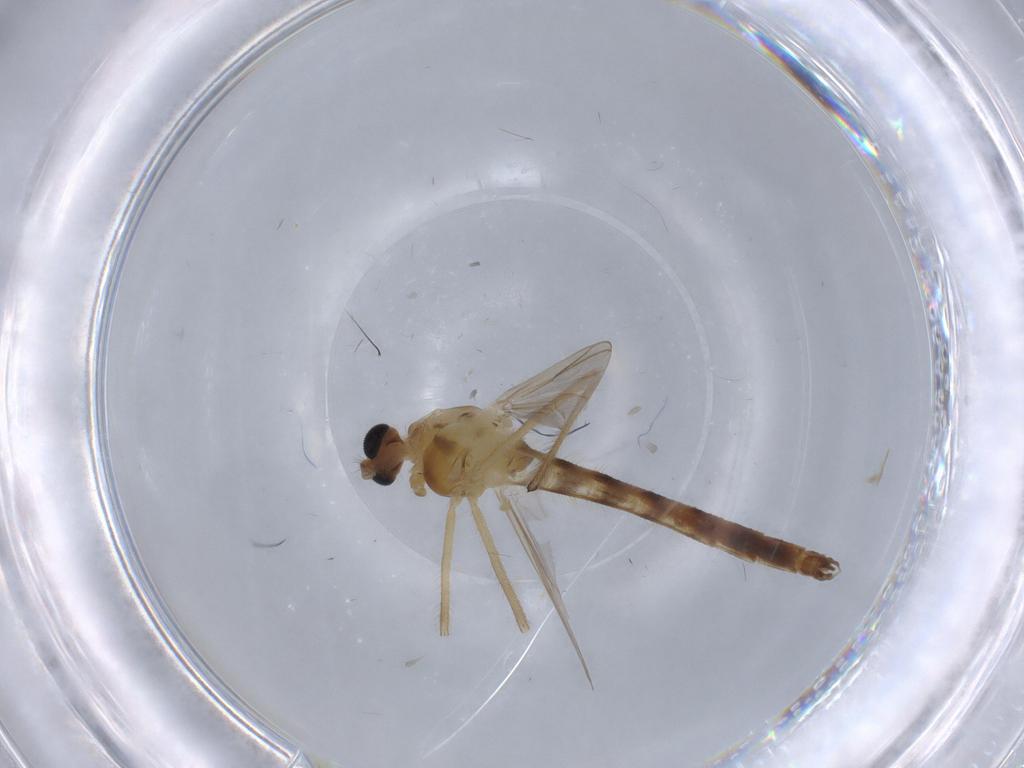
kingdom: Animalia
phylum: Arthropoda
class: Insecta
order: Diptera
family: Chironomidae
